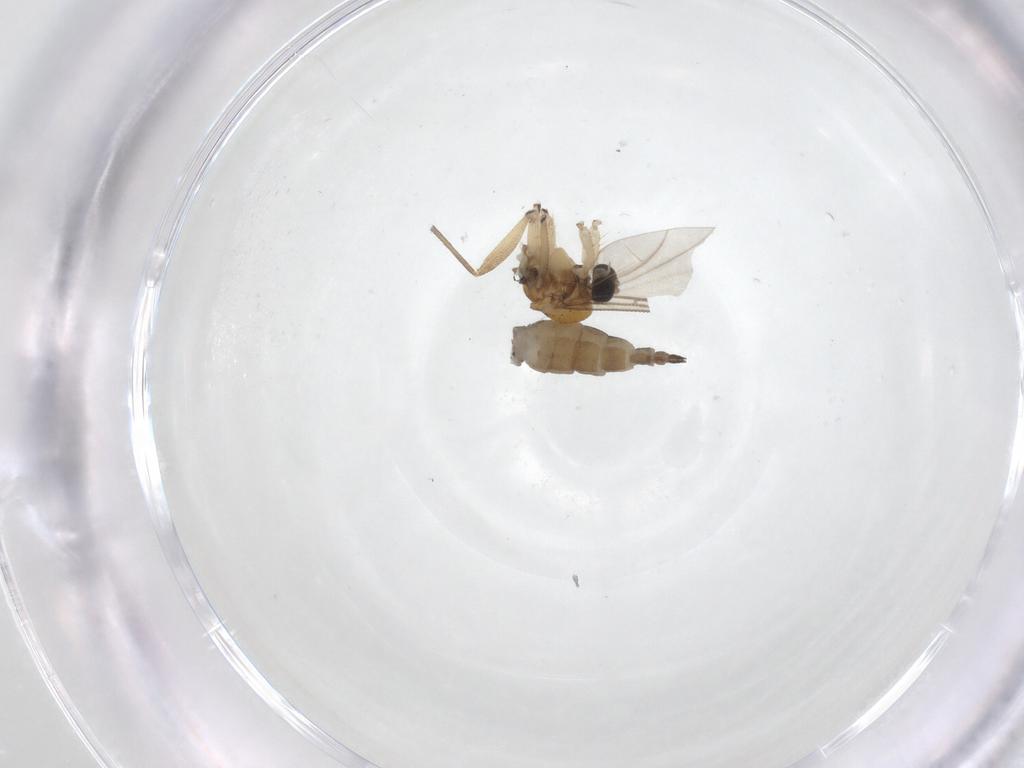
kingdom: Animalia
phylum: Arthropoda
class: Insecta
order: Diptera
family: Sciaridae
